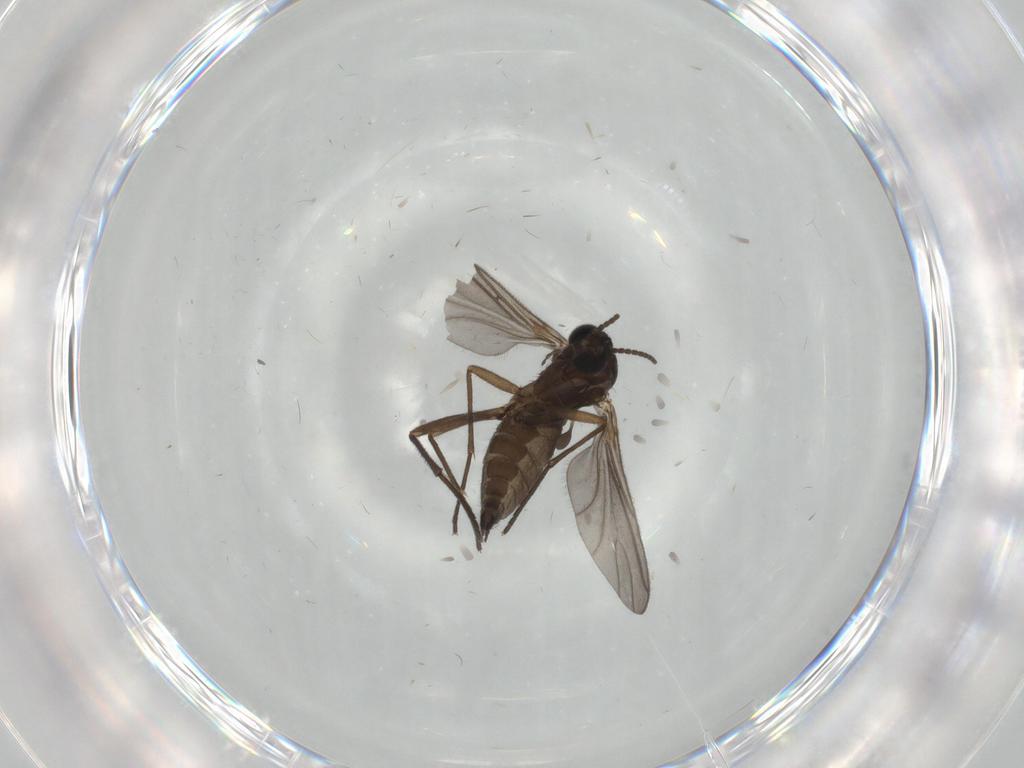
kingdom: Animalia
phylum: Arthropoda
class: Insecta
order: Diptera
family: Sciaridae
